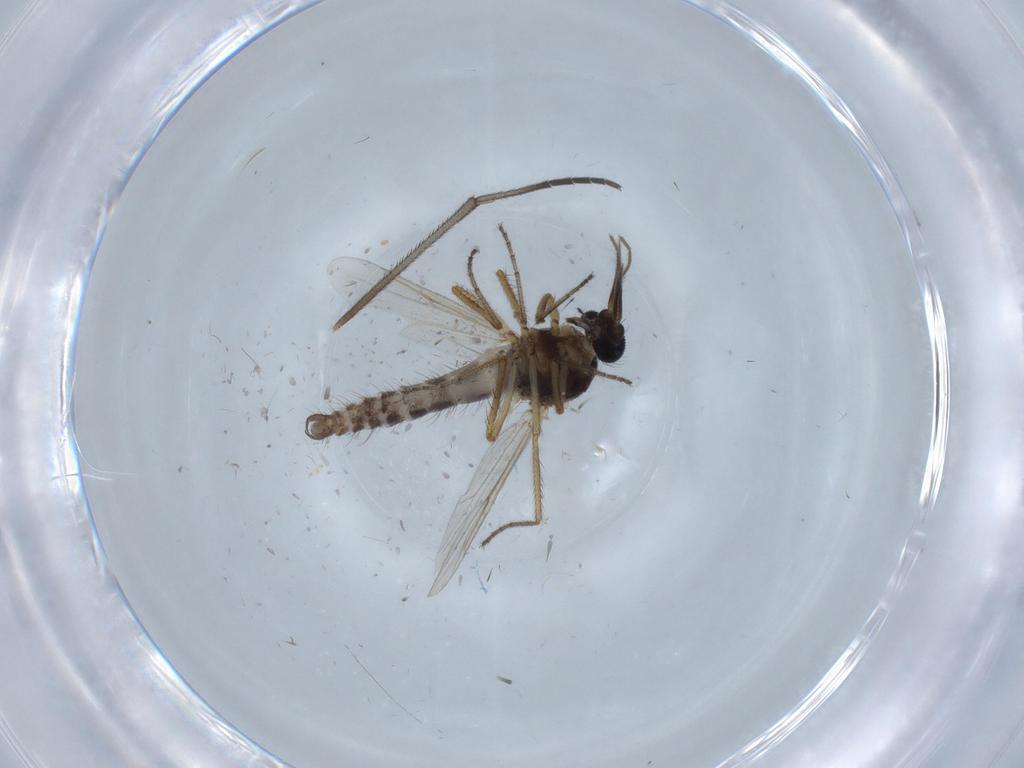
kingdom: Animalia
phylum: Arthropoda
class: Insecta
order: Diptera
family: Ceratopogonidae
